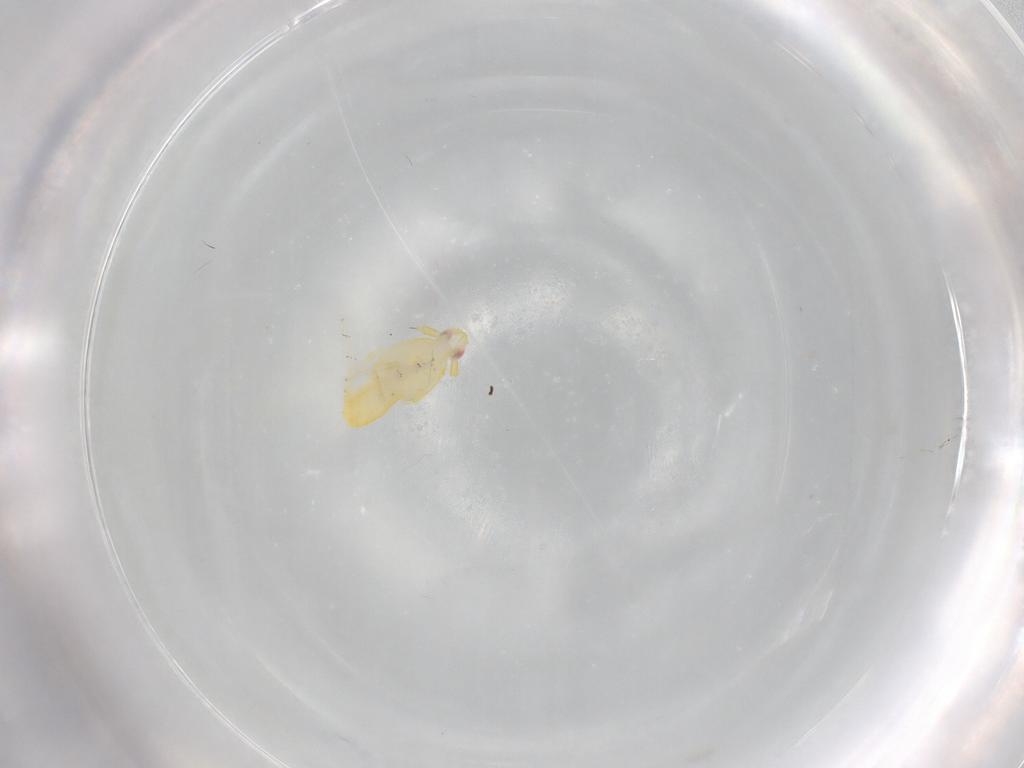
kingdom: Animalia
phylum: Arthropoda
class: Insecta
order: Hemiptera
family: Delphacidae
